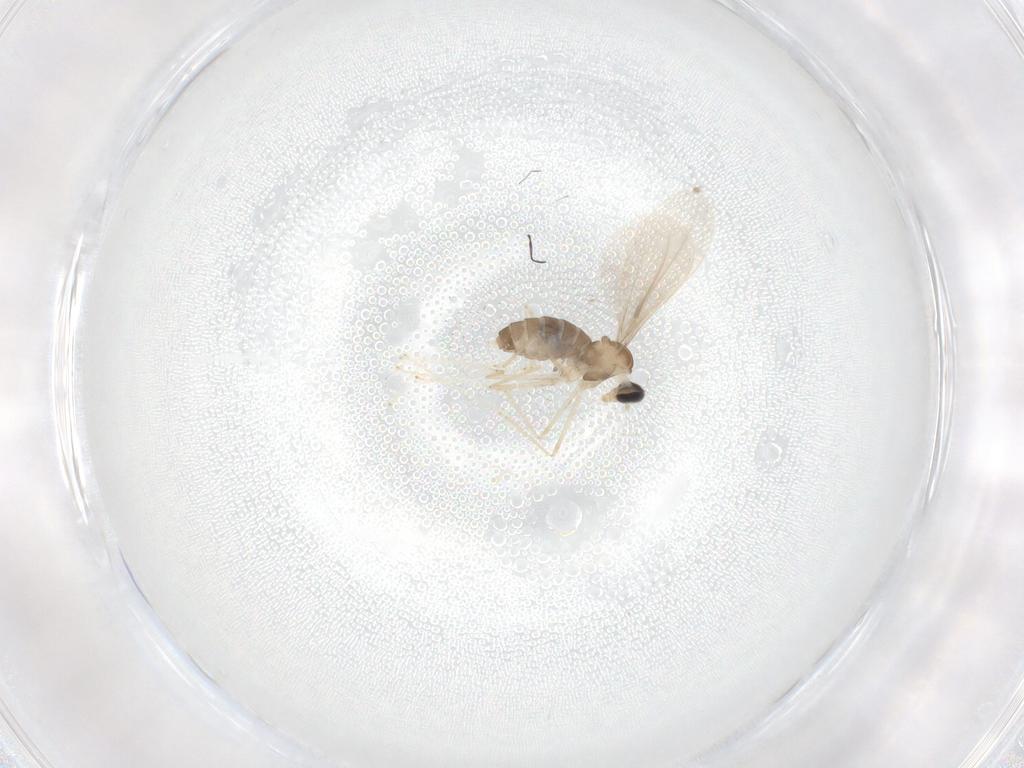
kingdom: Animalia
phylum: Arthropoda
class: Insecta
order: Diptera
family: Cecidomyiidae
